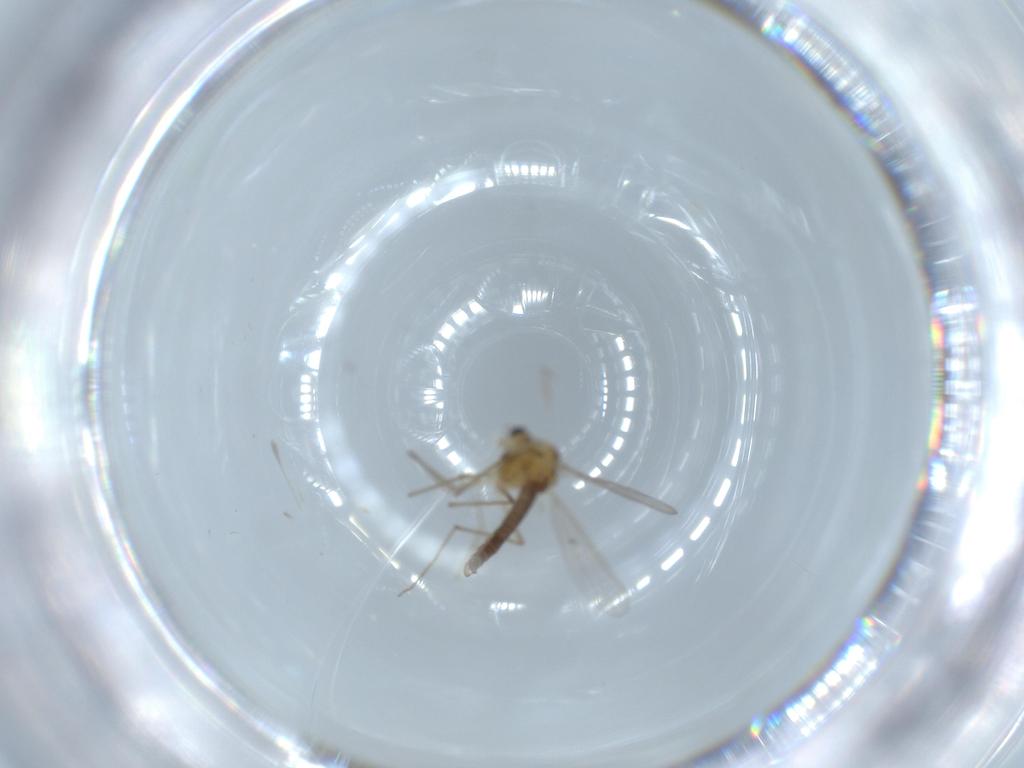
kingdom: Animalia
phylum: Arthropoda
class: Insecta
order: Diptera
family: Chironomidae
